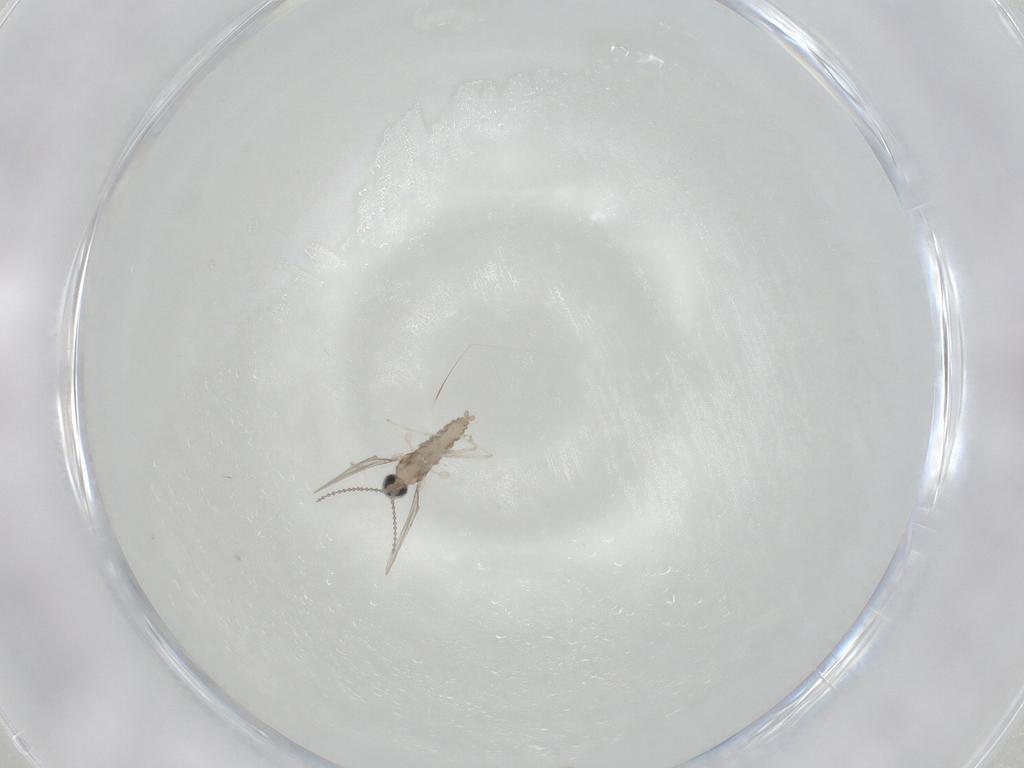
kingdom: Animalia
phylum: Arthropoda
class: Insecta
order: Diptera
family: Cecidomyiidae
